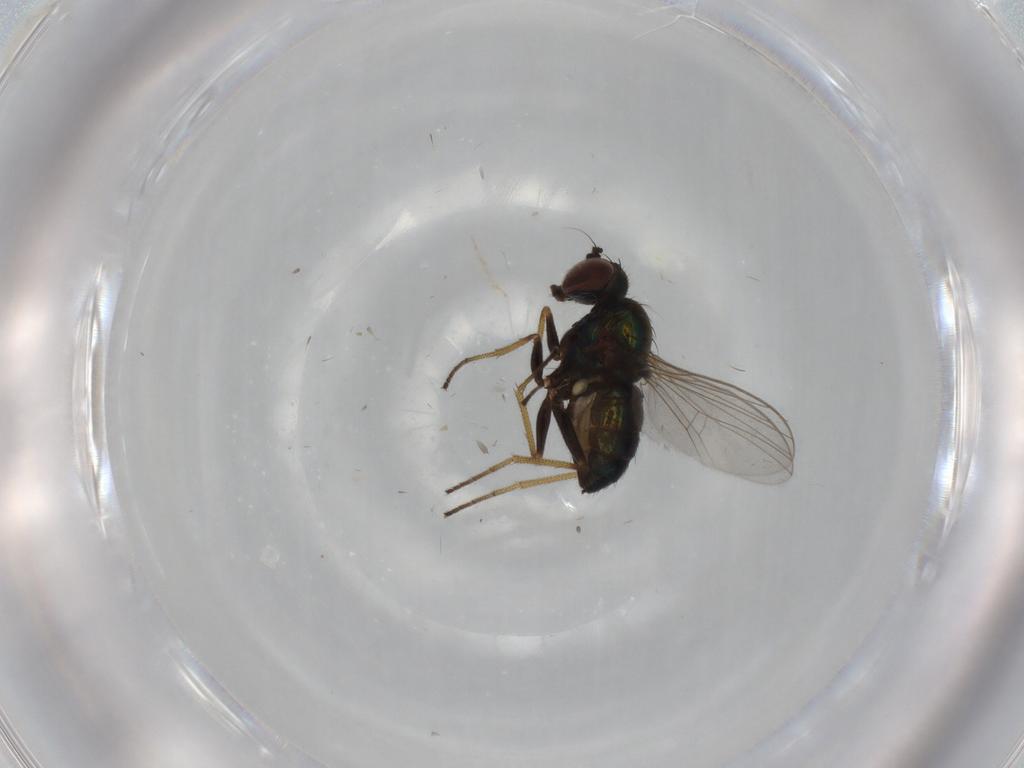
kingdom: Animalia
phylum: Arthropoda
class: Insecta
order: Diptera
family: Dolichopodidae
